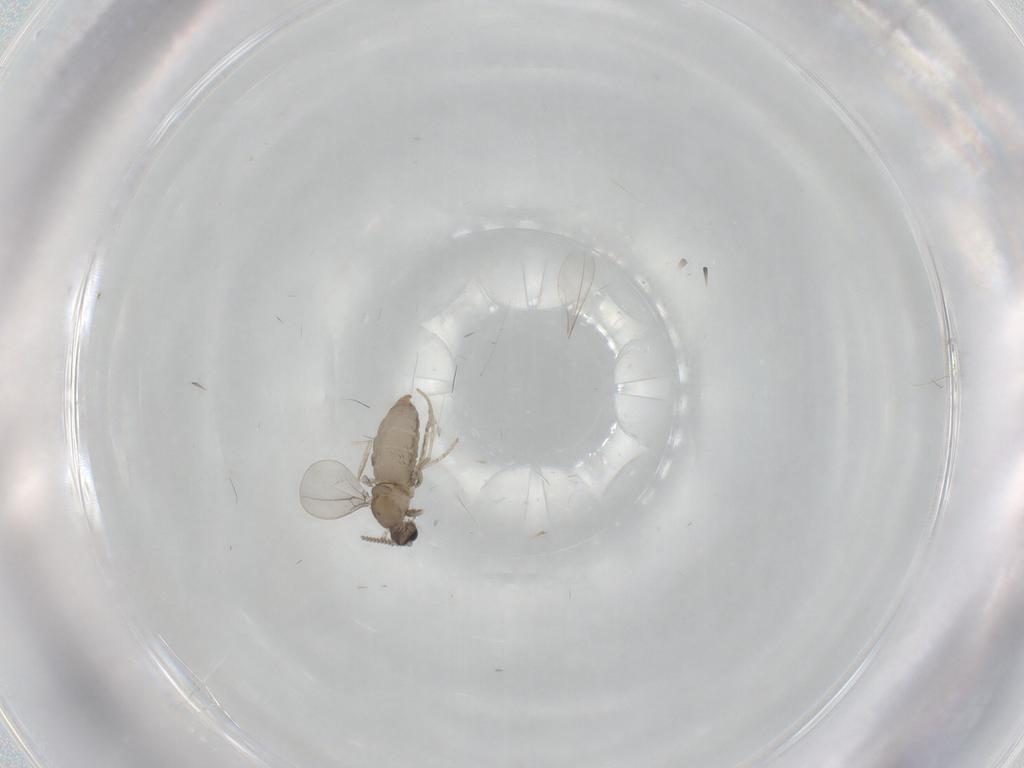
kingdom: Animalia
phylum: Arthropoda
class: Insecta
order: Diptera
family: Cecidomyiidae
